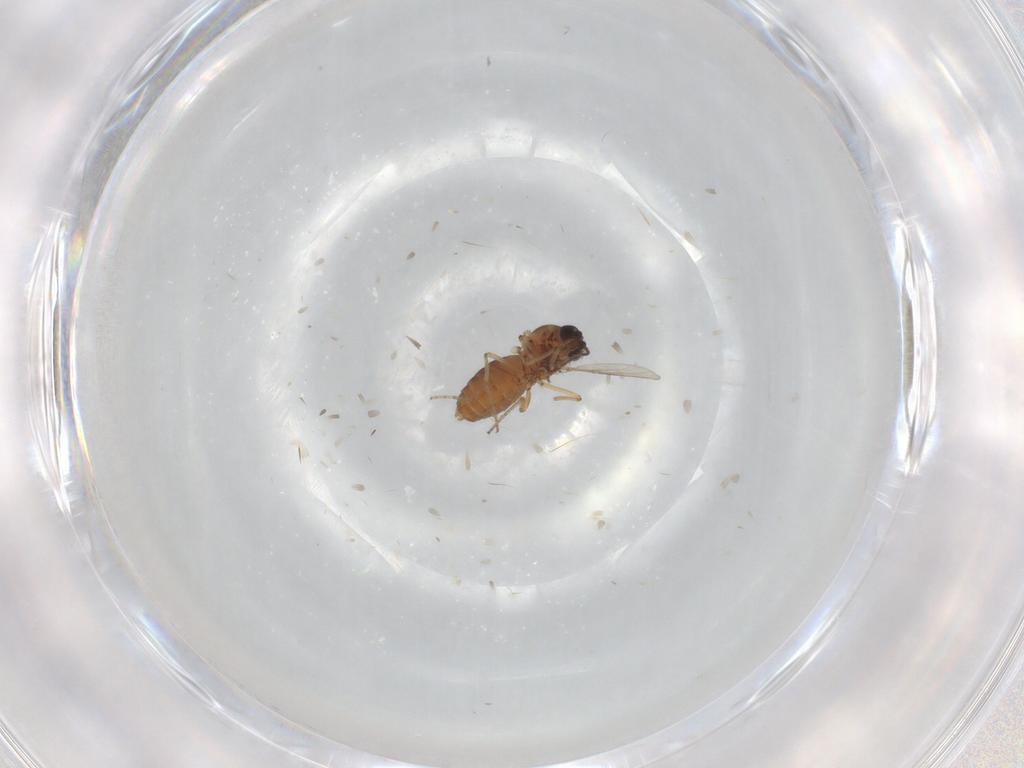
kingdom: Animalia
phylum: Arthropoda
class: Insecta
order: Diptera
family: Ceratopogonidae
